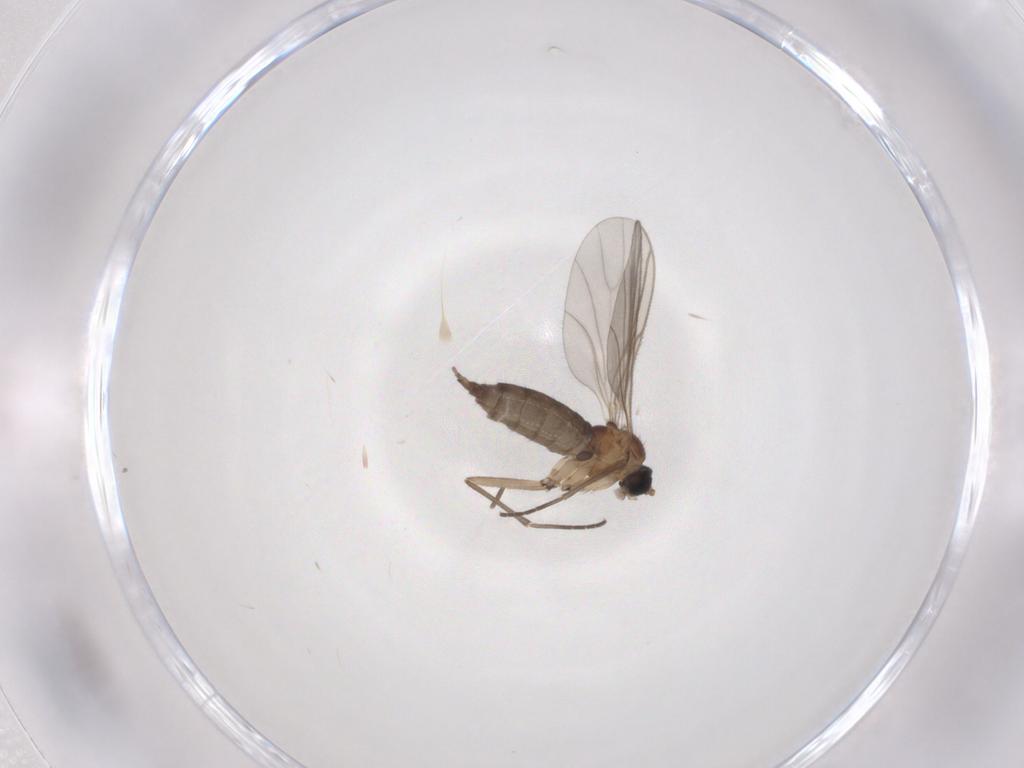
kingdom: Animalia
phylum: Arthropoda
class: Insecta
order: Diptera
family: Sciaridae
